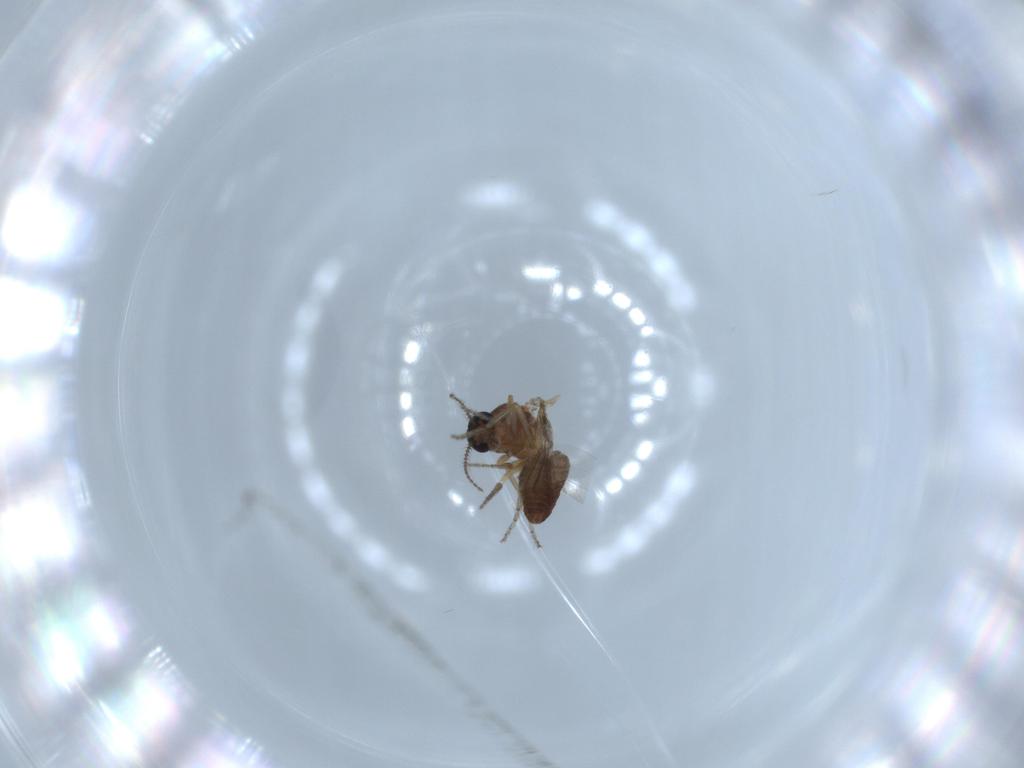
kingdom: Animalia
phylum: Arthropoda
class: Insecta
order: Diptera
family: Ceratopogonidae
